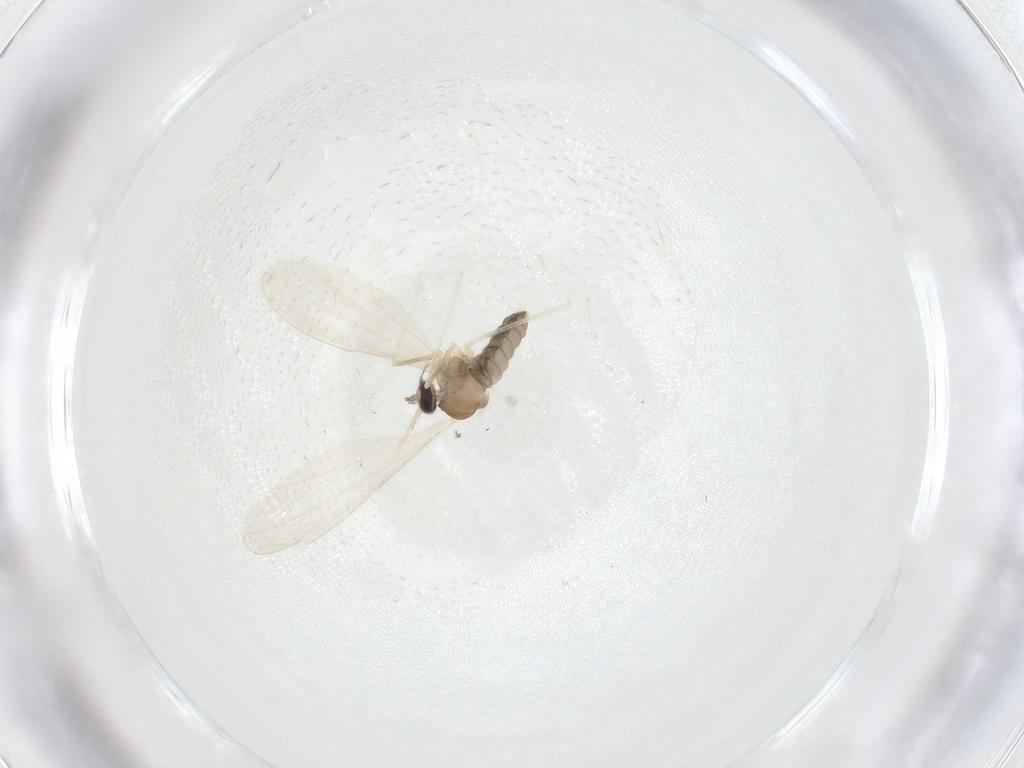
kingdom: Animalia
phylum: Arthropoda
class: Insecta
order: Diptera
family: Cecidomyiidae
